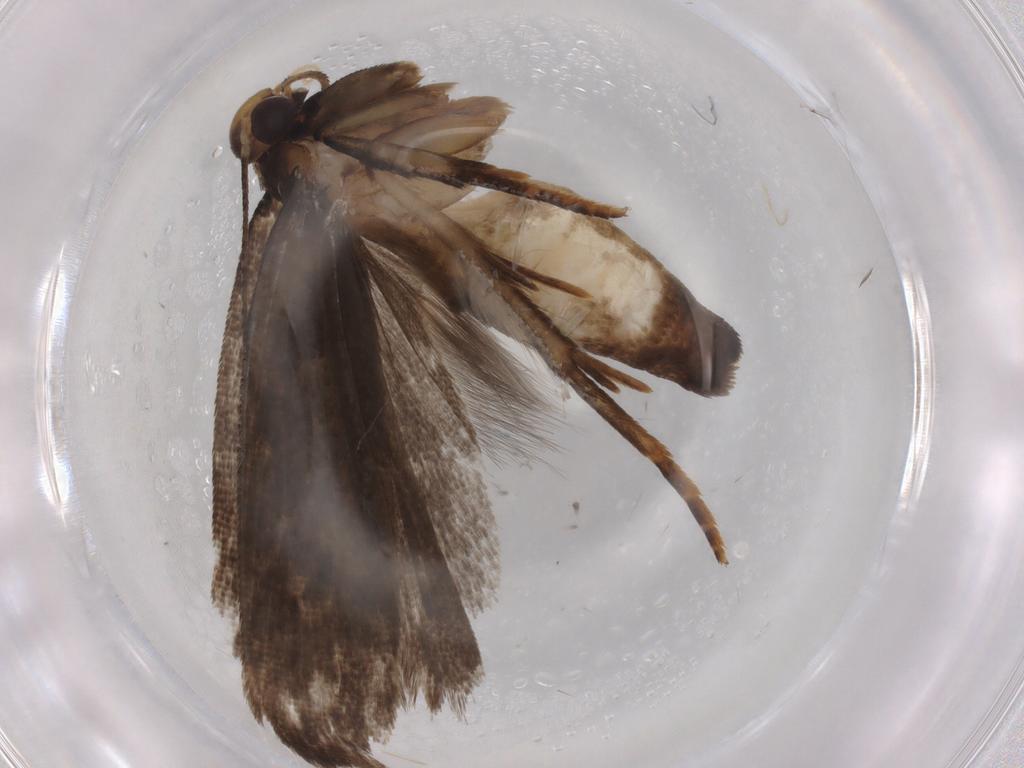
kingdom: Animalia
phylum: Arthropoda
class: Insecta
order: Lepidoptera
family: Gelechiidae
